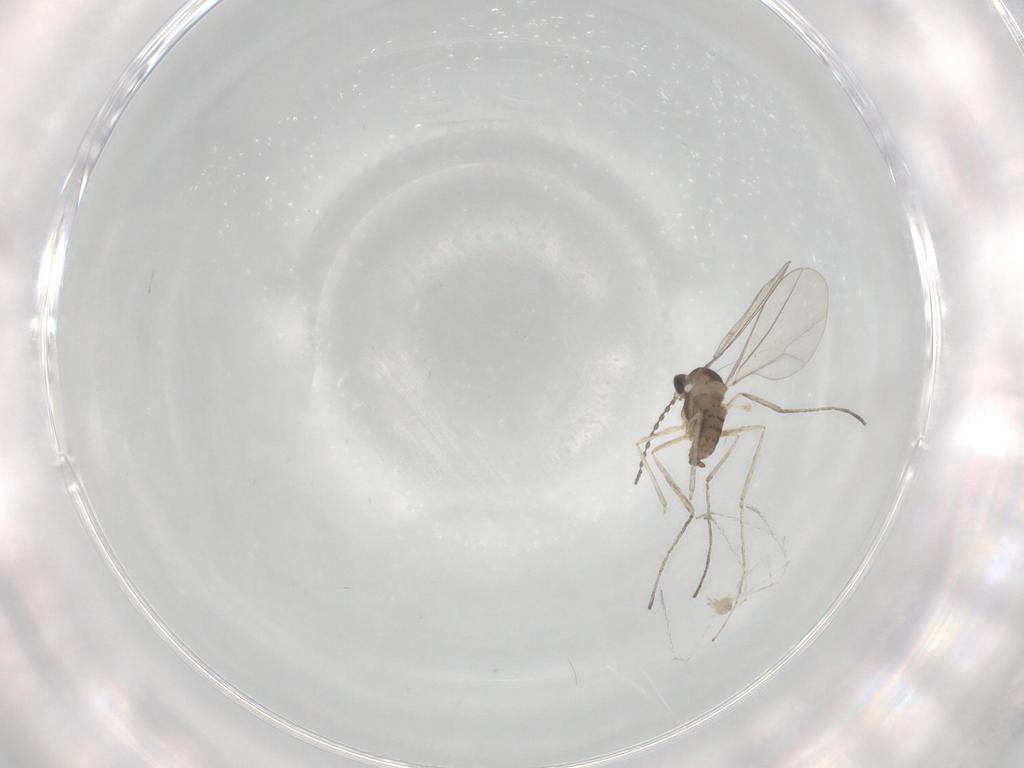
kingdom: Animalia
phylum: Arthropoda
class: Insecta
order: Diptera
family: Cecidomyiidae
